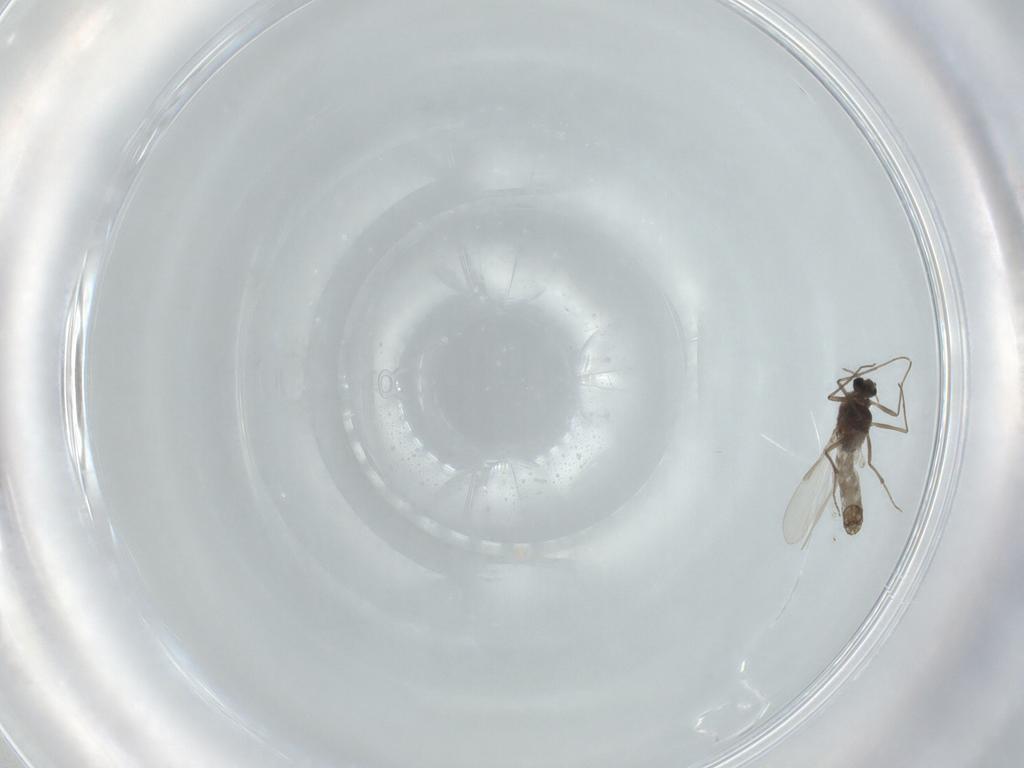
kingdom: Animalia
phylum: Arthropoda
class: Insecta
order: Diptera
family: Chironomidae
